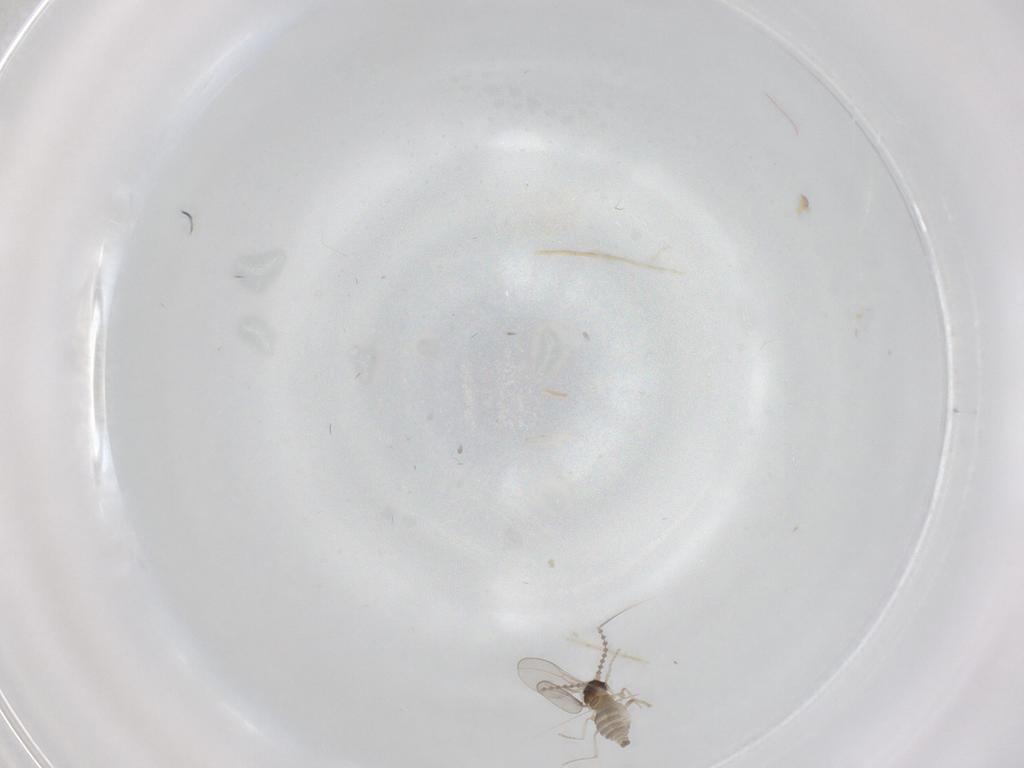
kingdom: Animalia
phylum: Arthropoda
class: Insecta
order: Diptera
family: Cecidomyiidae
